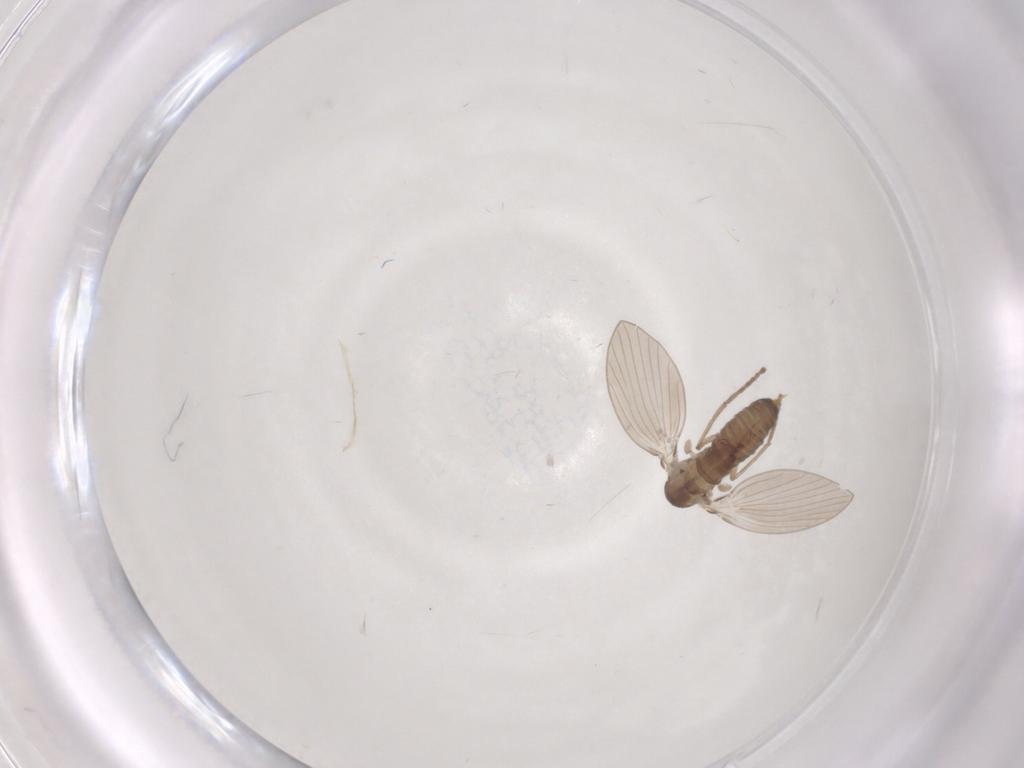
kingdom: Animalia
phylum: Arthropoda
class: Insecta
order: Diptera
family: Psychodidae
